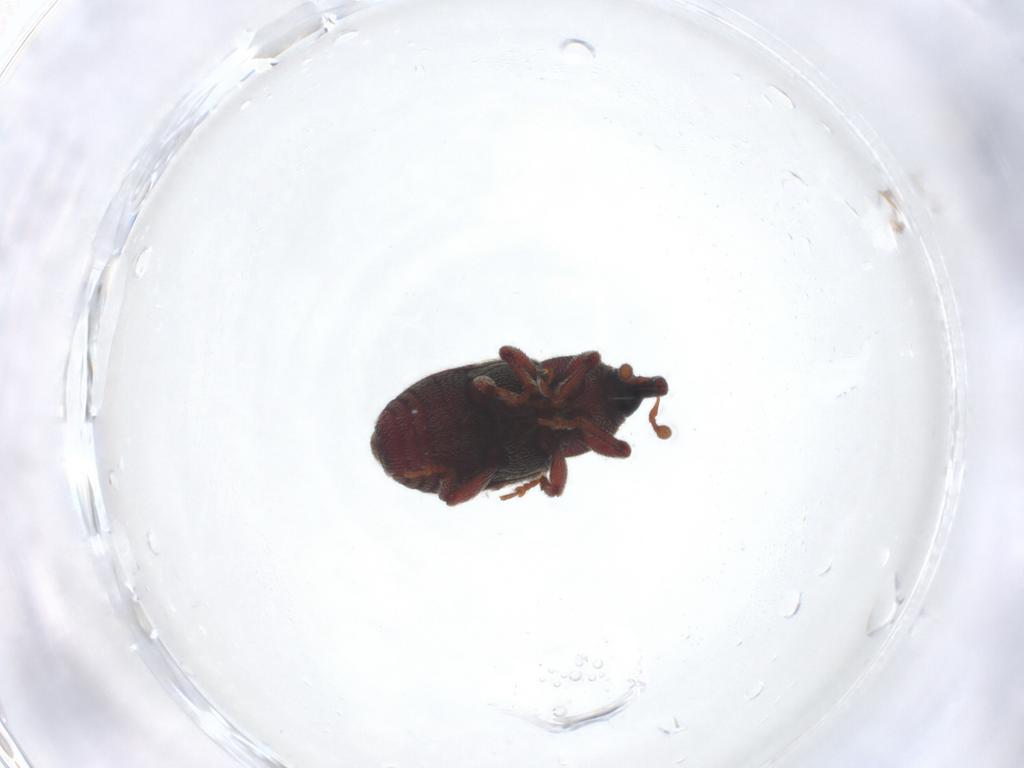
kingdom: Animalia
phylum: Arthropoda
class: Insecta
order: Coleoptera
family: Curculionidae
